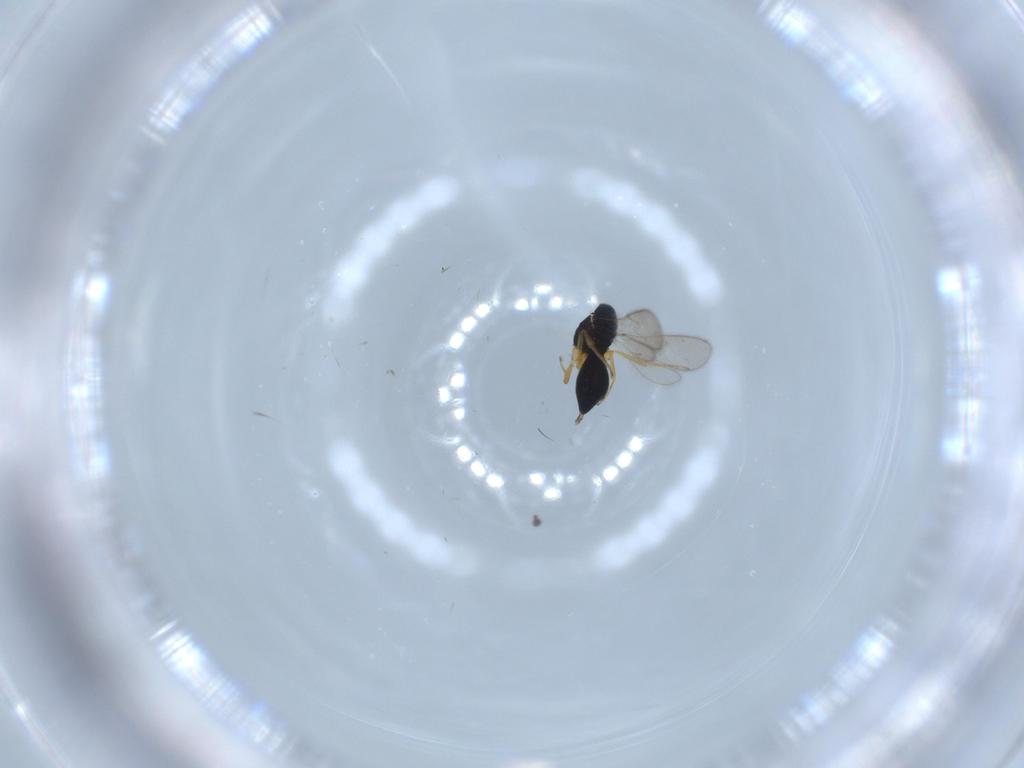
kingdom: Animalia
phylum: Arthropoda
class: Insecta
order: Hymenoptera
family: Scelionidae
